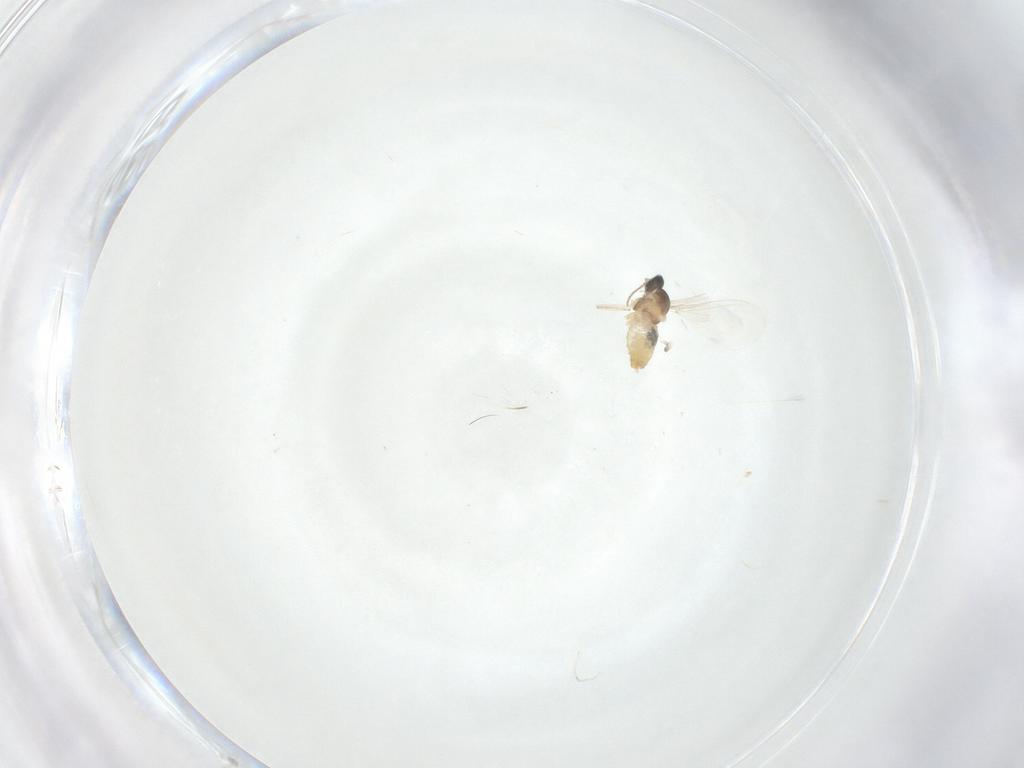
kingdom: Animalia
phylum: Arthropoda
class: Insecta
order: Diptera
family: Cecidomyiidae
